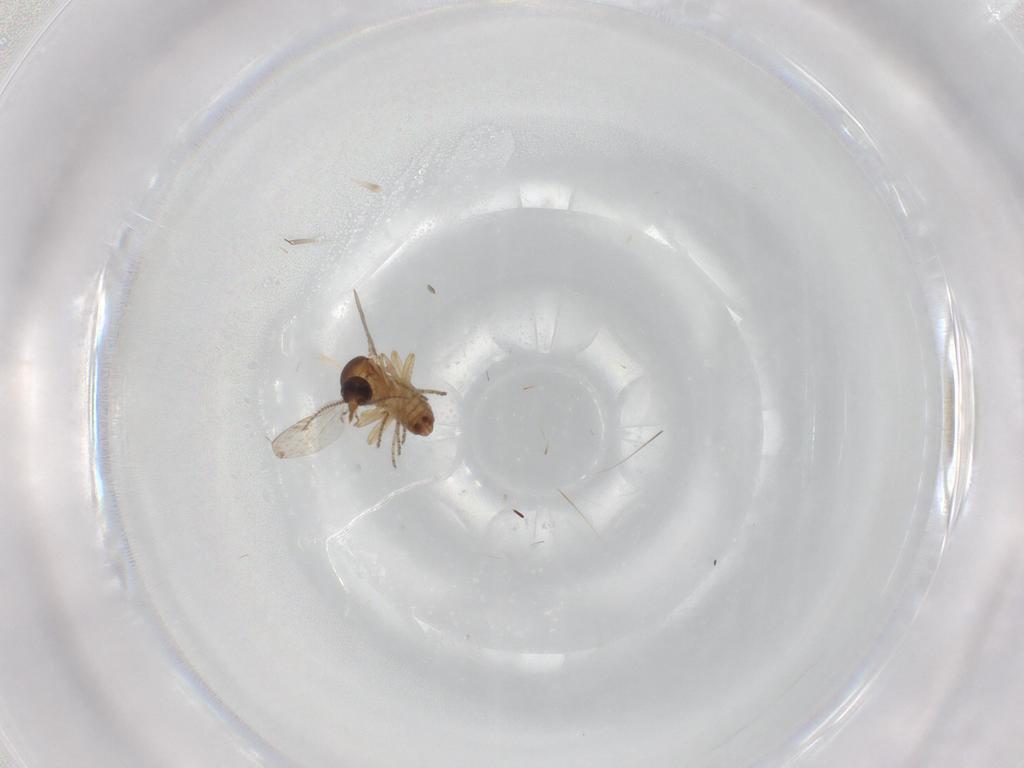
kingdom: Animalia
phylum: Arthropoda
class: Insecta
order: Diptera
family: Ceratopogonidae
